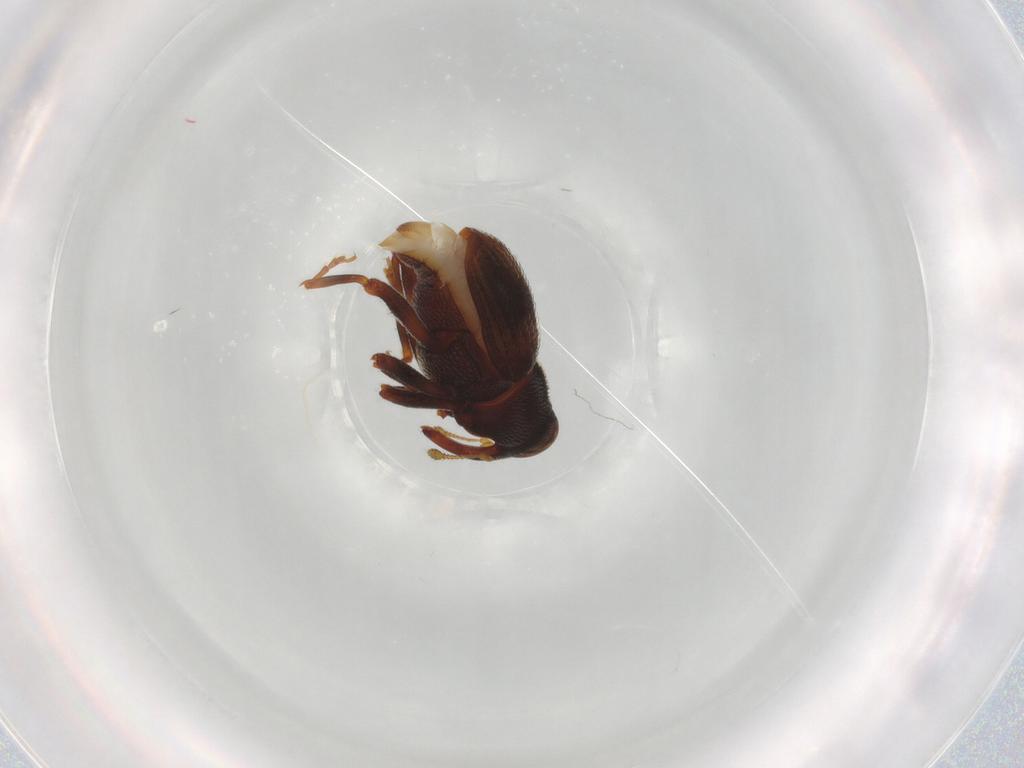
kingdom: Animalia
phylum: Arthropoda
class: Insecta
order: Coleoptera
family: Curculionidae
